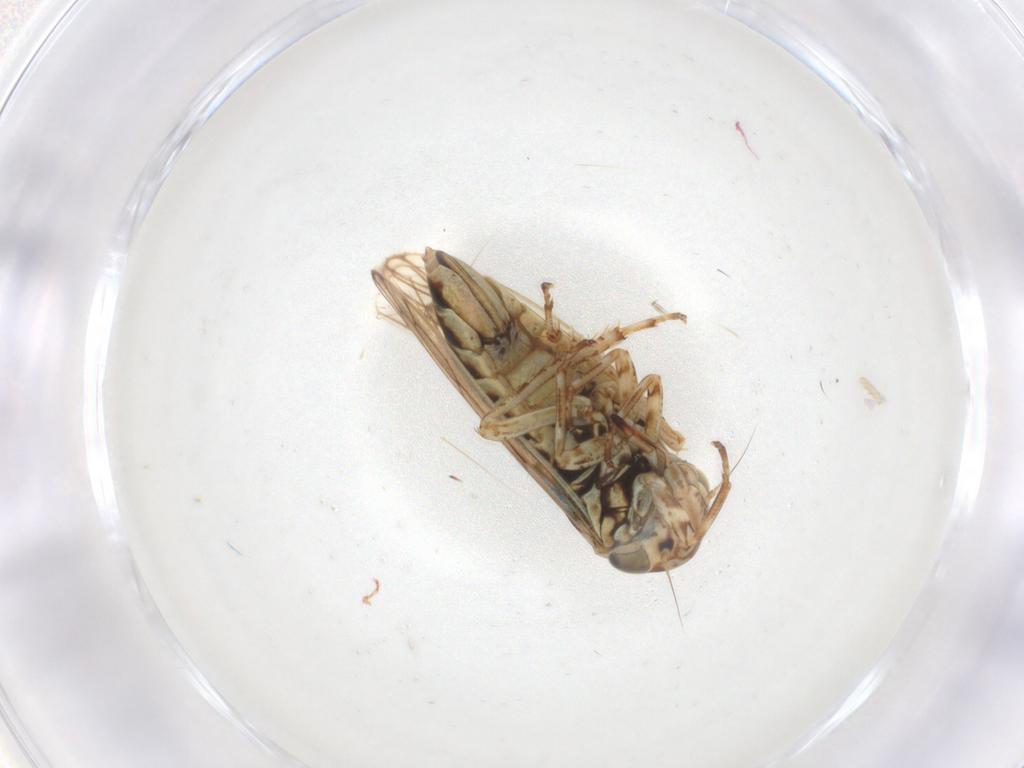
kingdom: Animalia
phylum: Arthropoda
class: Insecta
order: Hemiptera
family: Cicadellidae
